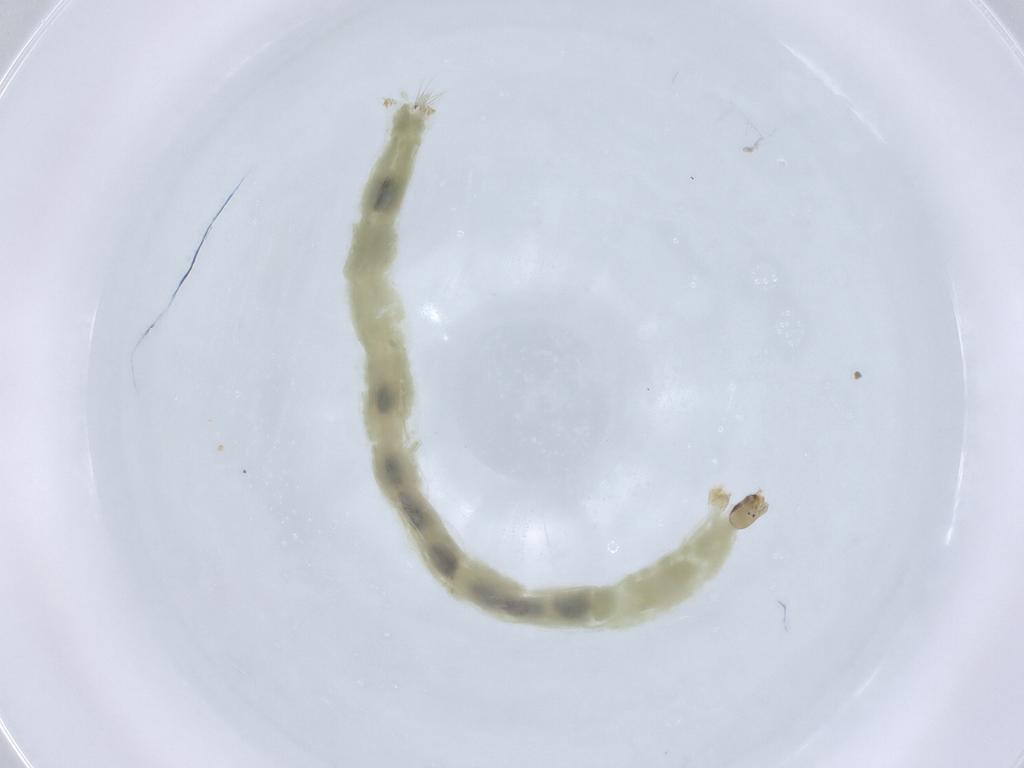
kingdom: Animalia
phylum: Arthropoda
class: Insecta
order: Diptera
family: Chironomidae
